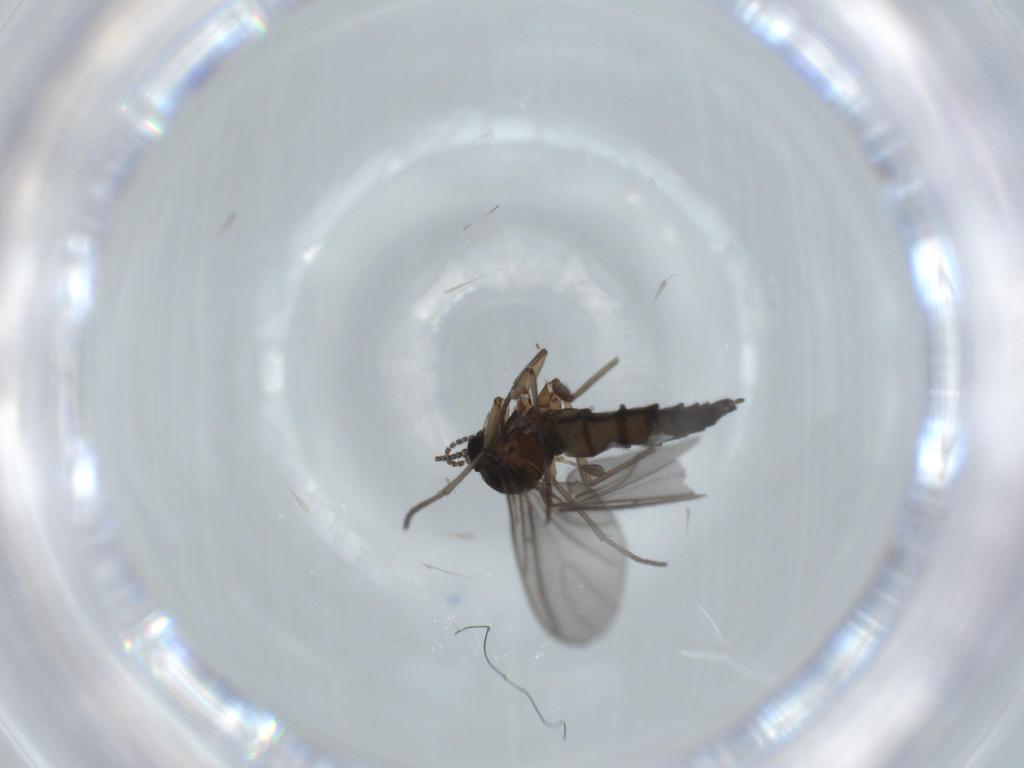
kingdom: Animalia
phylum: Arthropoda
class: Insecta
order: Diptera
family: Sciaridae
